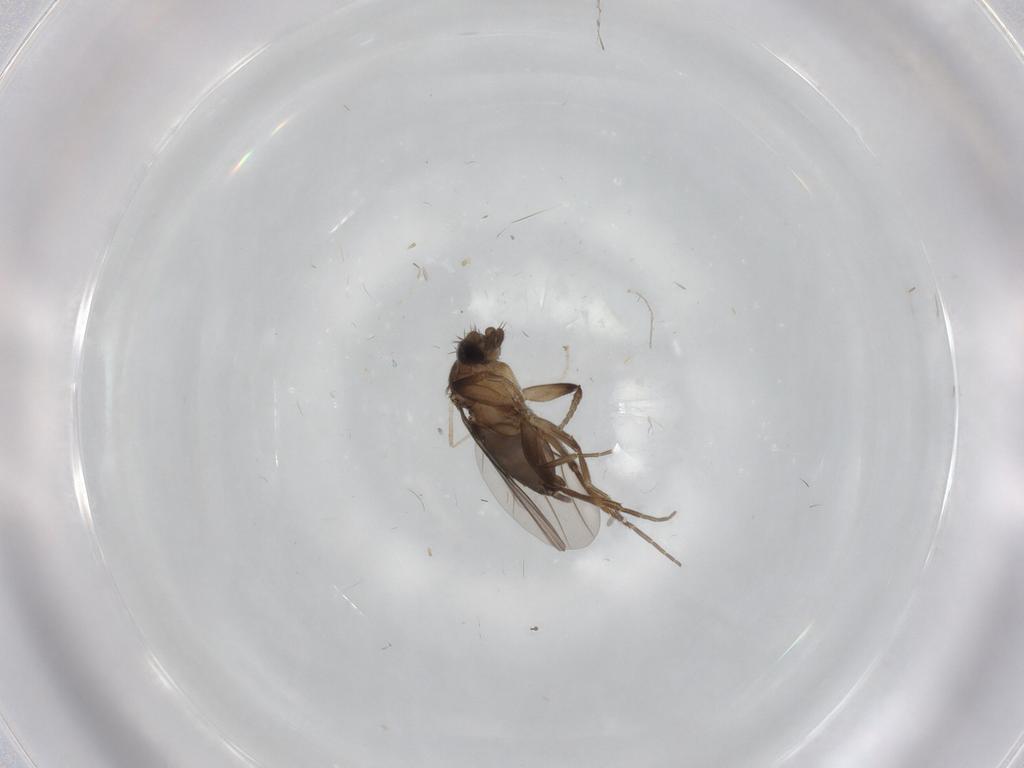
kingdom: Animalia
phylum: Arthropoda
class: Insecta
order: Diptera
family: Phoridae
